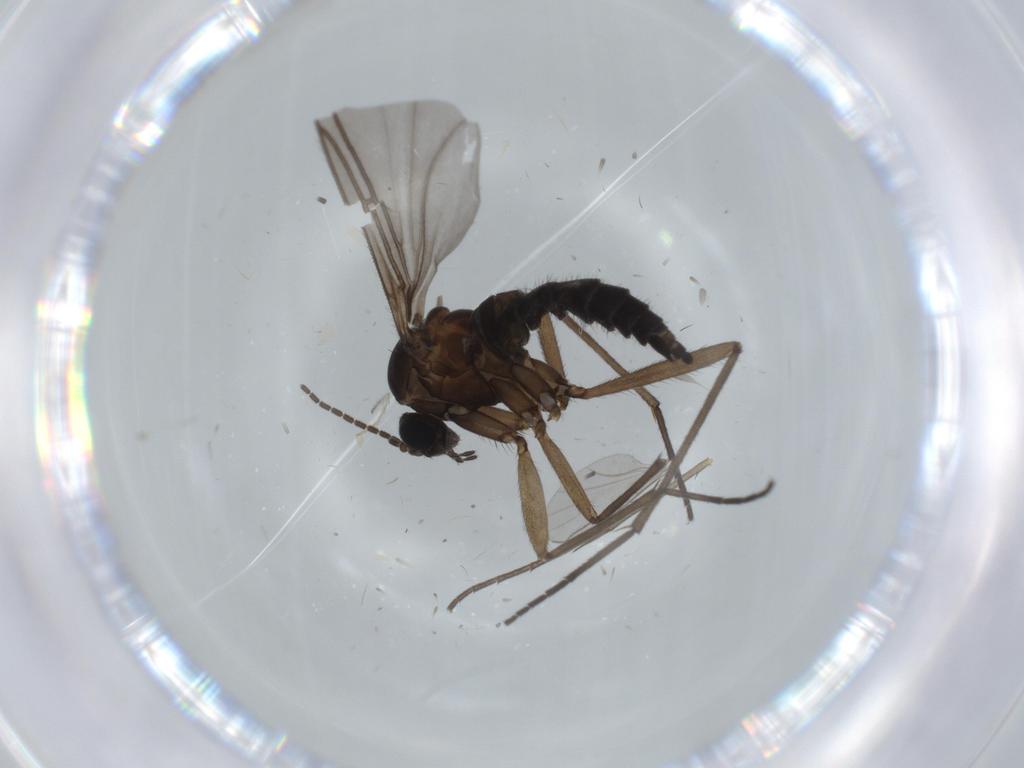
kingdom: Animalia
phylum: Arthropoda
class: Insecta
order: Diptera
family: Sciaridae
